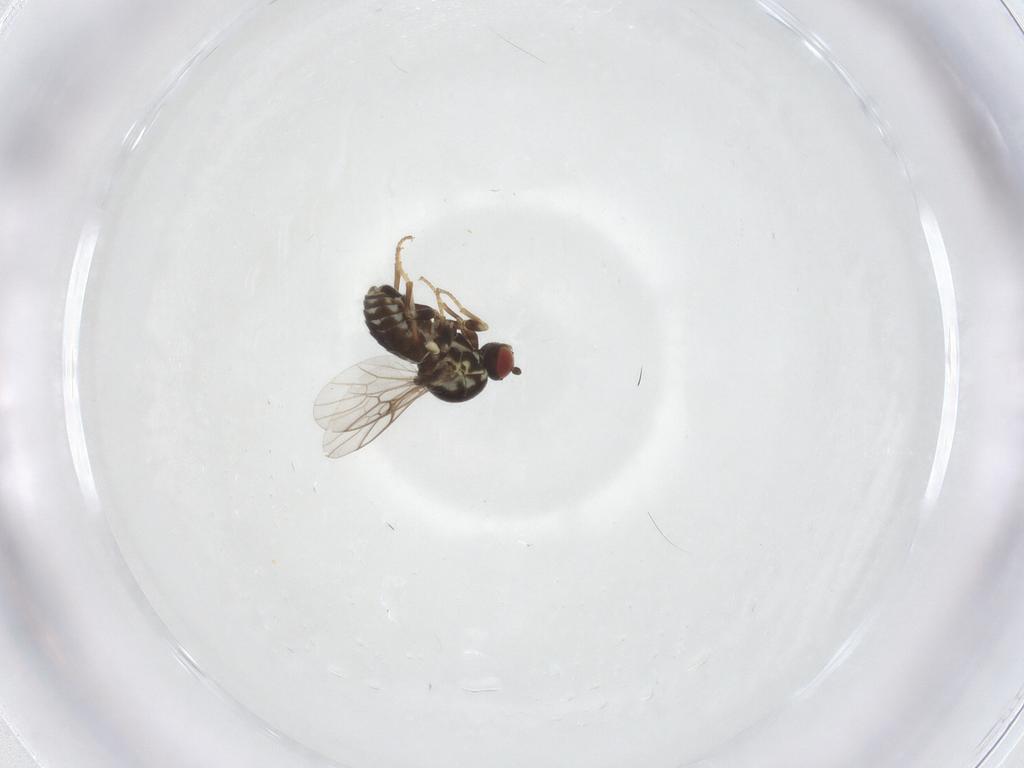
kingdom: Animalia
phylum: Arthropoda
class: Insecta
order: Diptera
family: Bombyliidae
